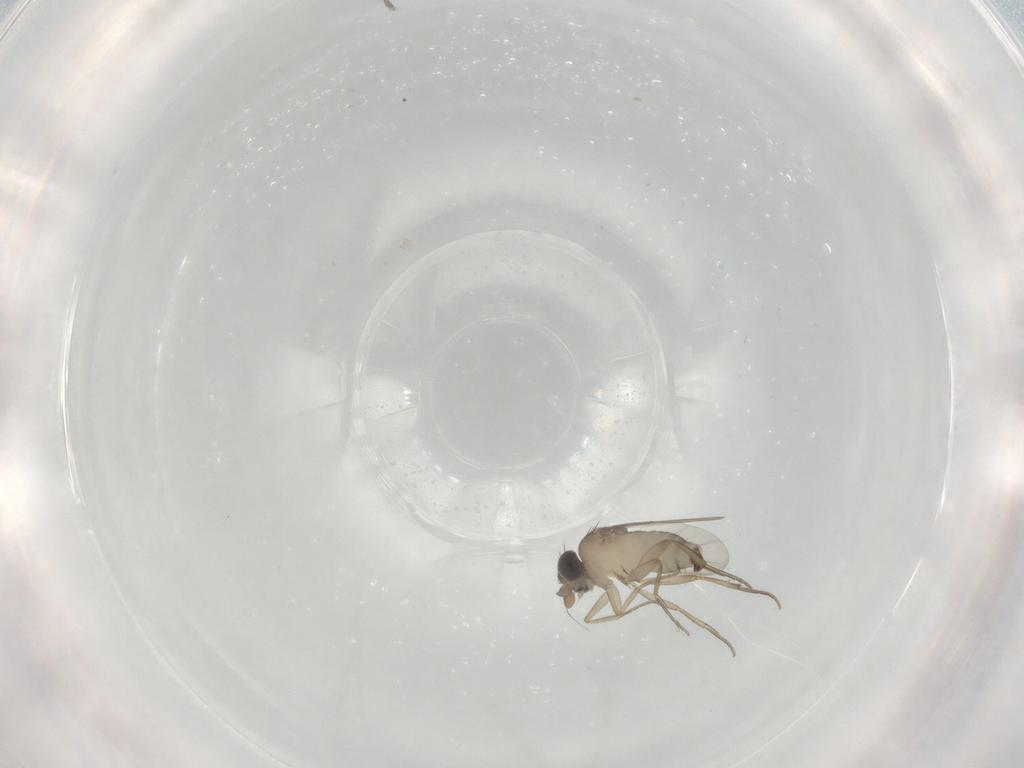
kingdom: Animalia
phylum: Arthropoda
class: Insecta
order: Diptera
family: Phoridae
